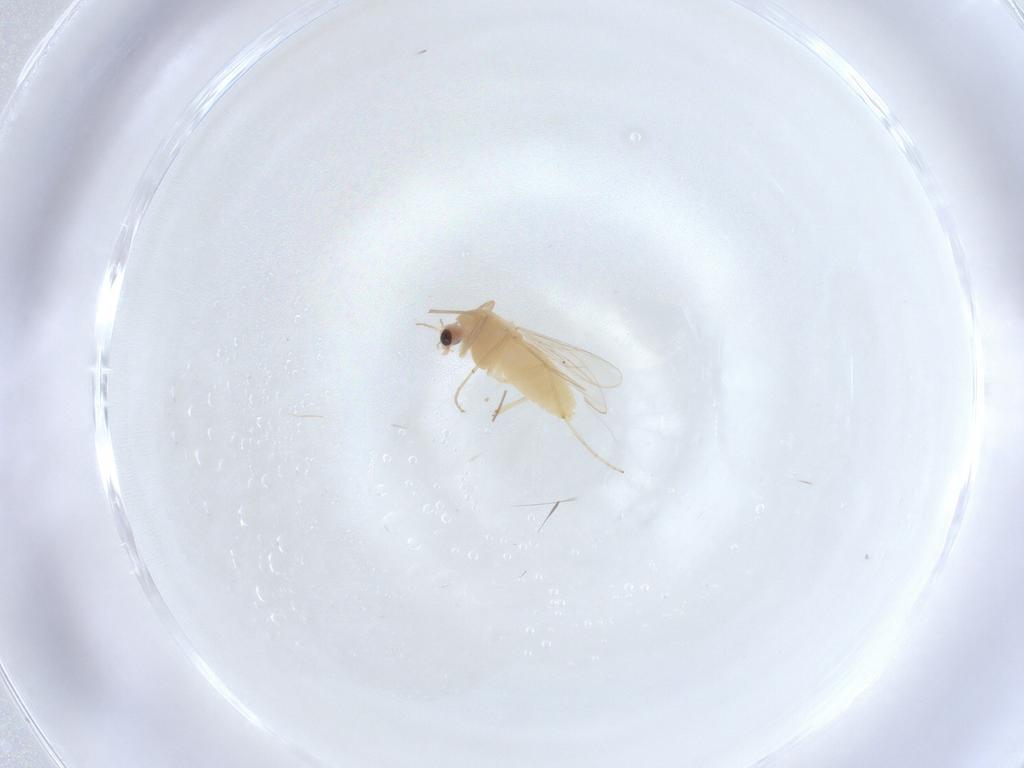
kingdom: Animalia
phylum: Arthropoda
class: Insecta
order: Diptera
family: Chironomidae
